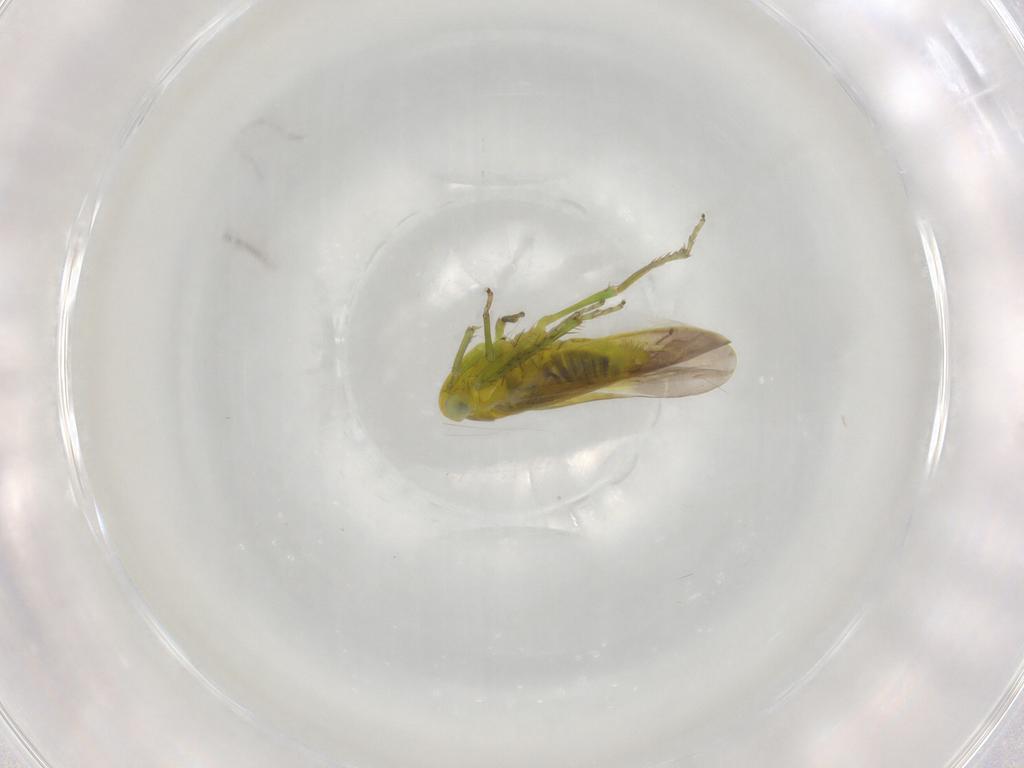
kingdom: Animalia
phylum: Arthropoda
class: Insecta
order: Hemiptera
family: Cicadellidae
